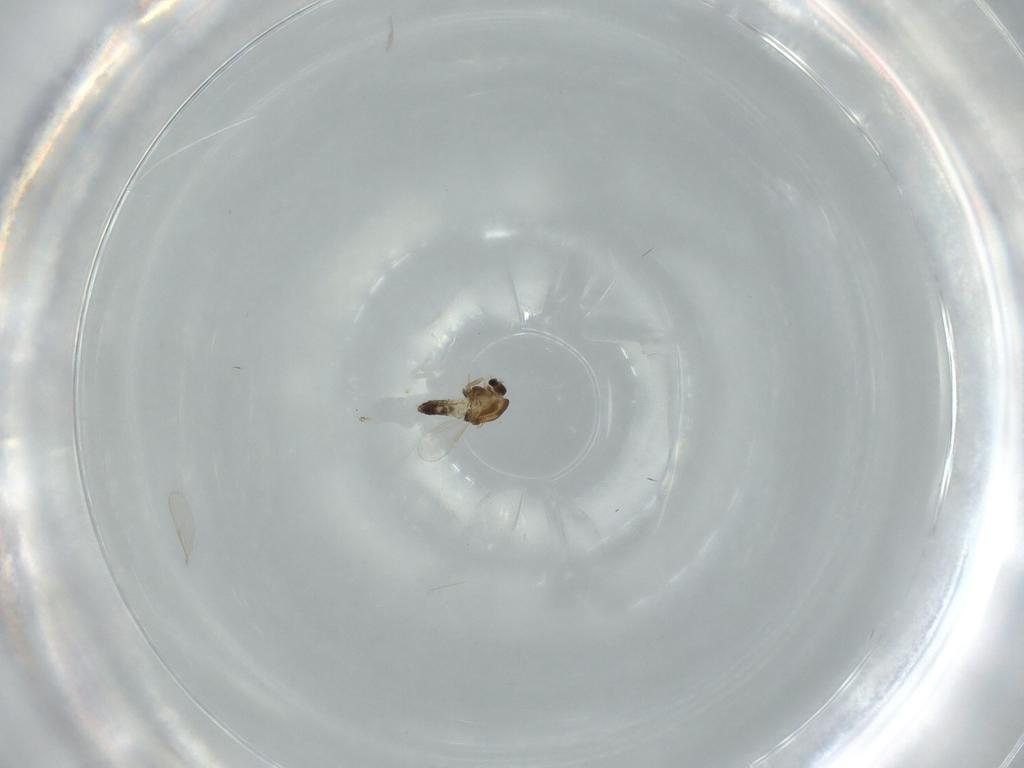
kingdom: Animalia
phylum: Arthropoda
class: Insecta
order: Diptera
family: Chironomidae
